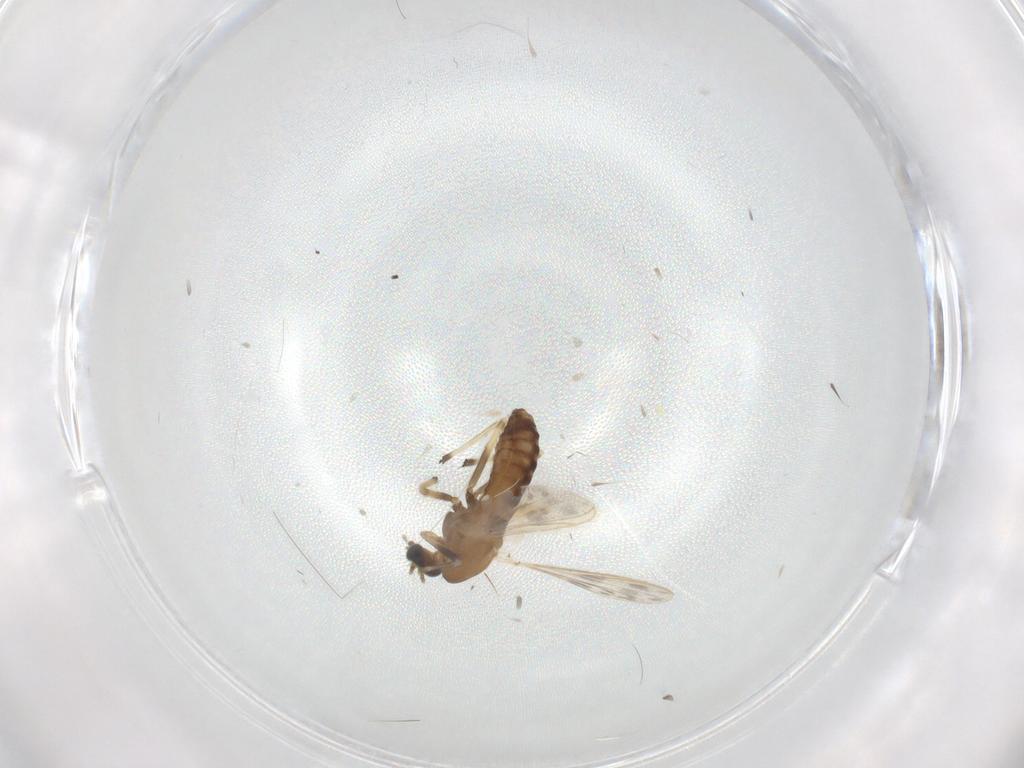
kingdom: Animalia
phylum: Arthropoda
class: Insecta
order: Diptera
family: Chironomidae
